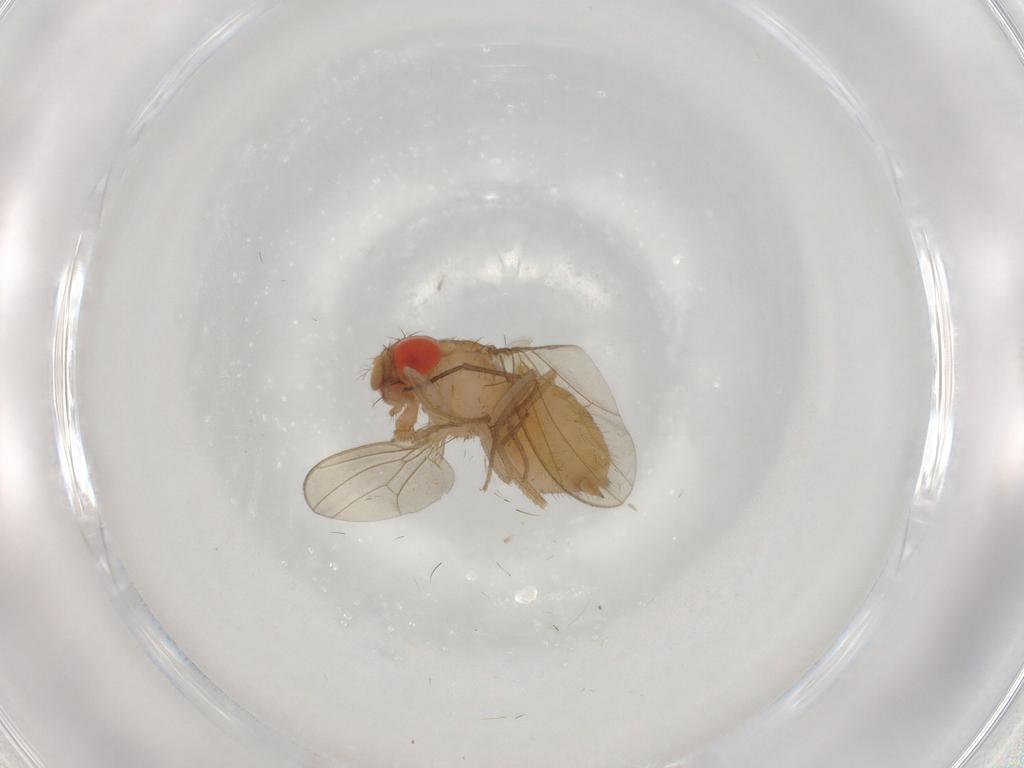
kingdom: Animalia
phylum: Arthropoda
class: Insecta
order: Diptera
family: Drosophilidae
